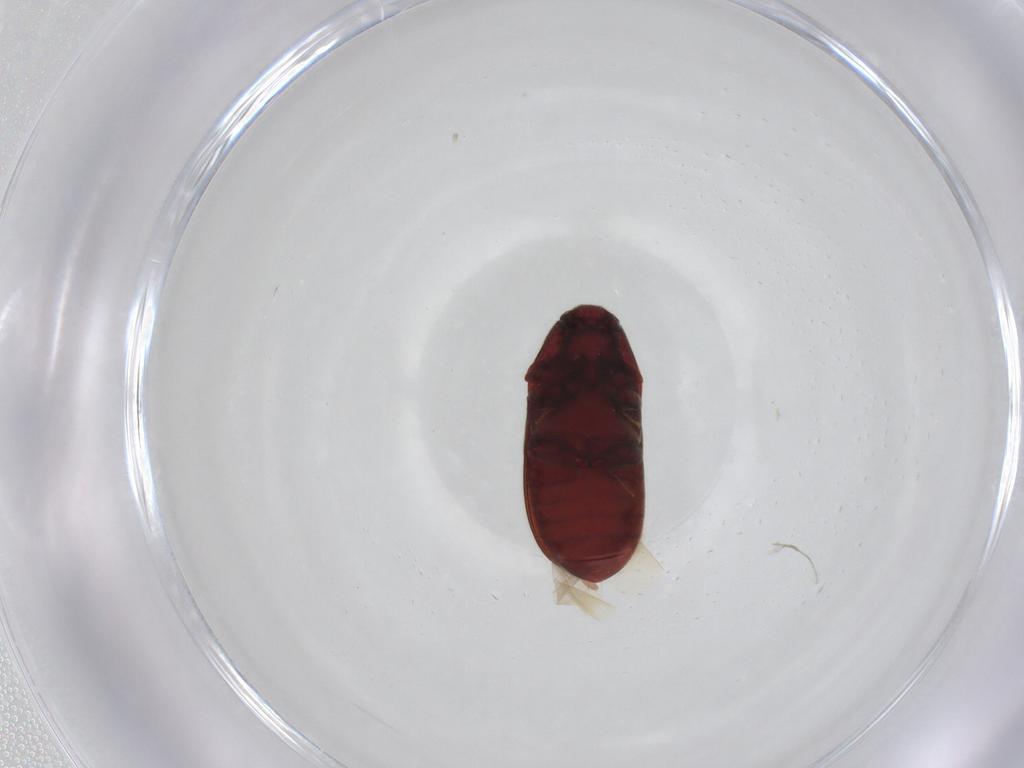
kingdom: Animalia
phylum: Arthropoda
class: Insecta
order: Coleoptera
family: Throscidae
